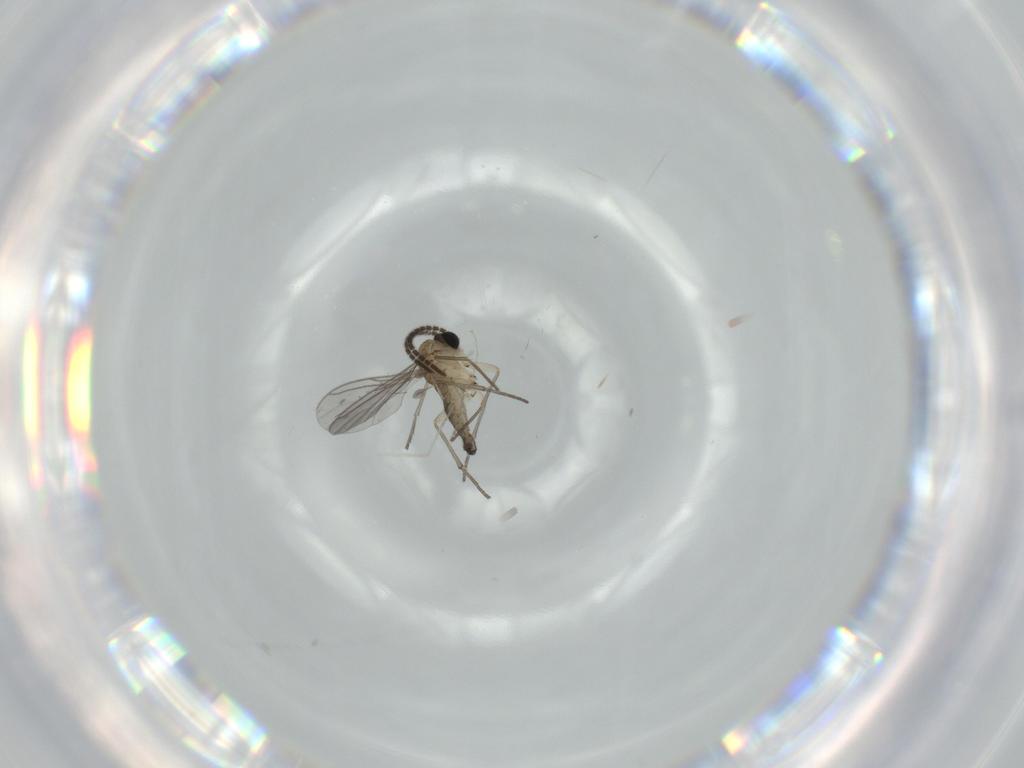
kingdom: Animalia
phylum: Arthropoda
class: Insecta
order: Diptera
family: Sciaridae
